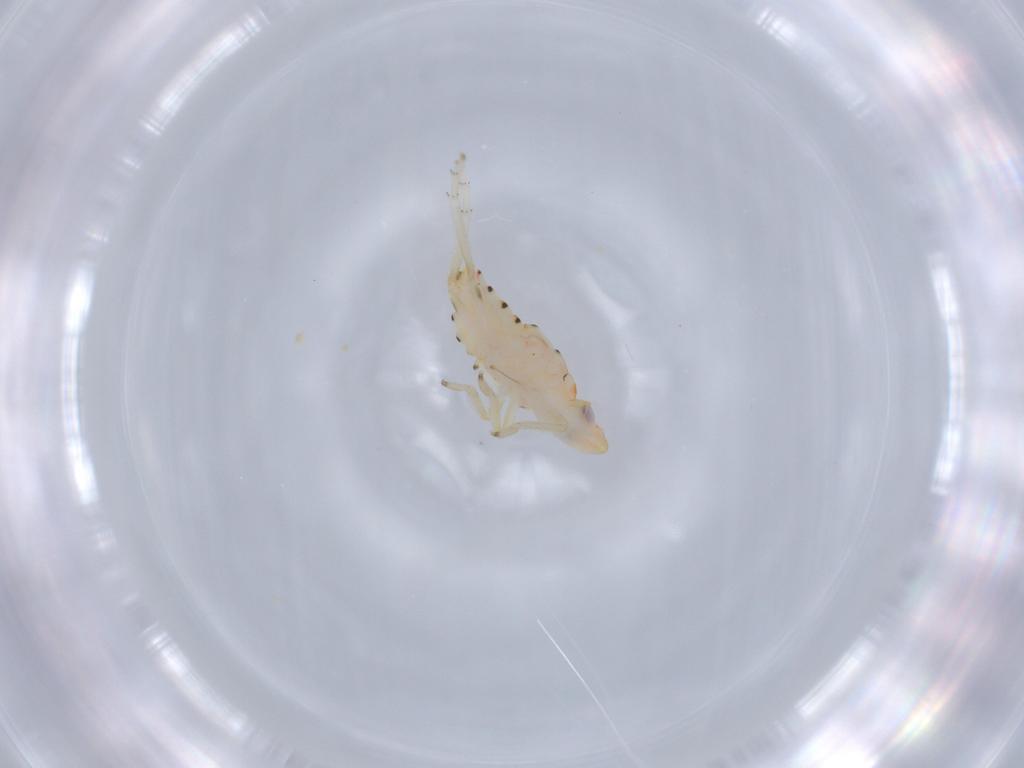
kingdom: Animalia
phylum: Arthropoda
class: Insecta
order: Hemiptera
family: Tropiduchidae
